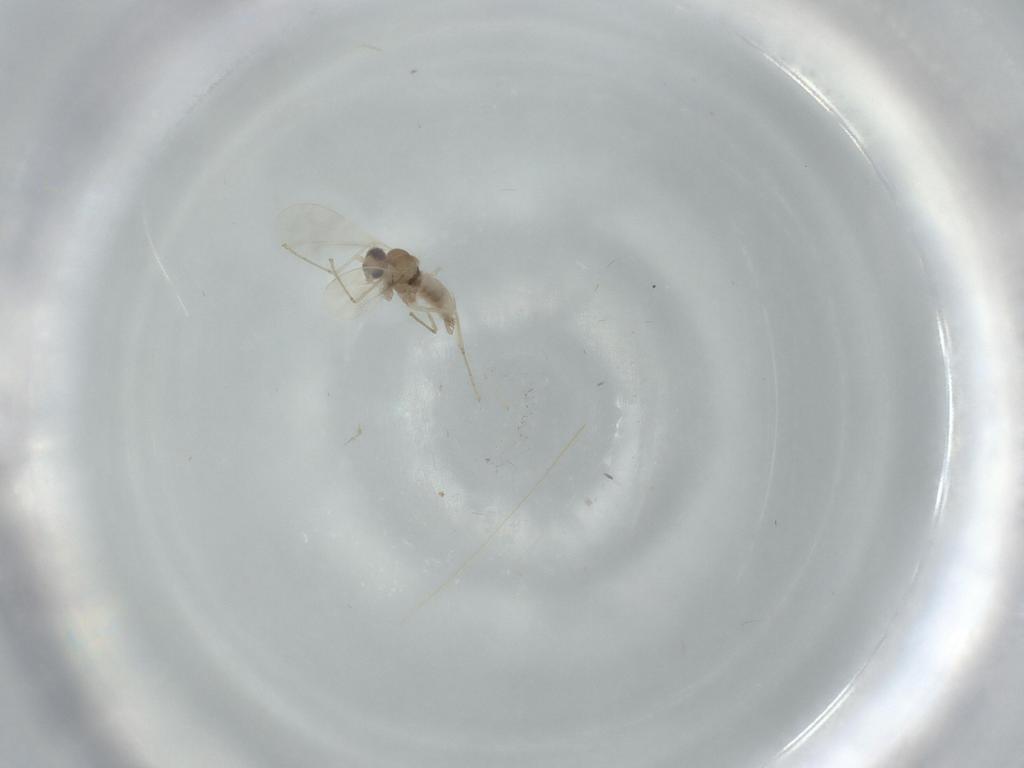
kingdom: Animalia
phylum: Arthropoda
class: Insecta
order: Diptera
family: Cecidomyiidae
